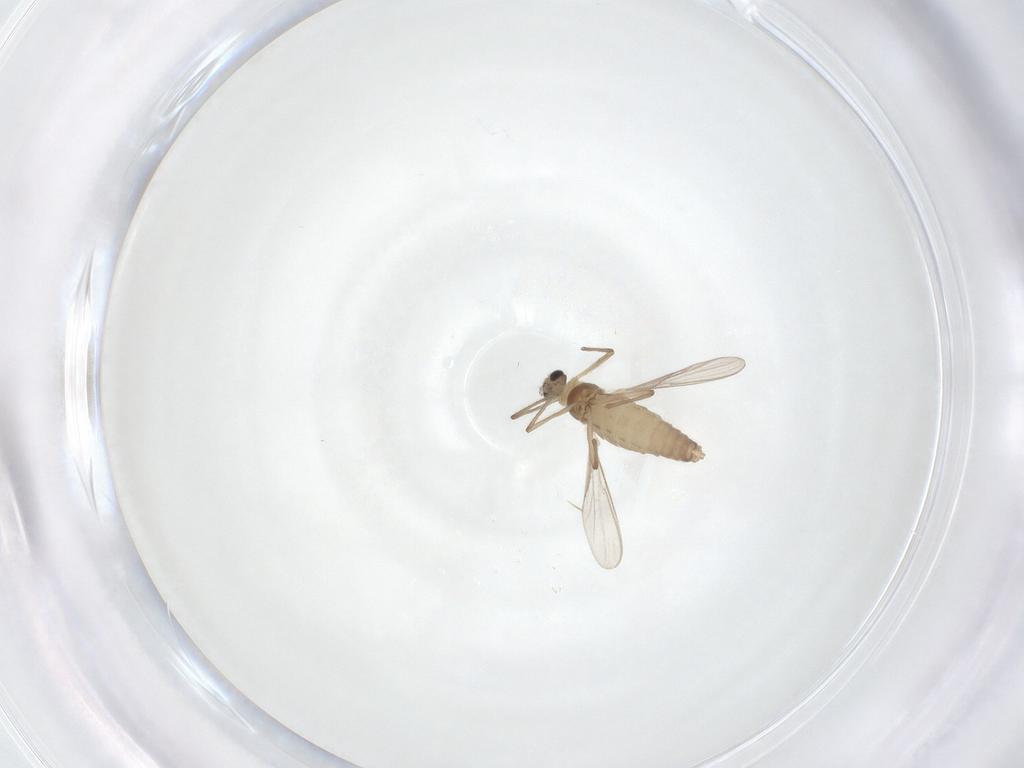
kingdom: Animalia
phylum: Arthropoda
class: Insecta
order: Diptera
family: Chironomidae
